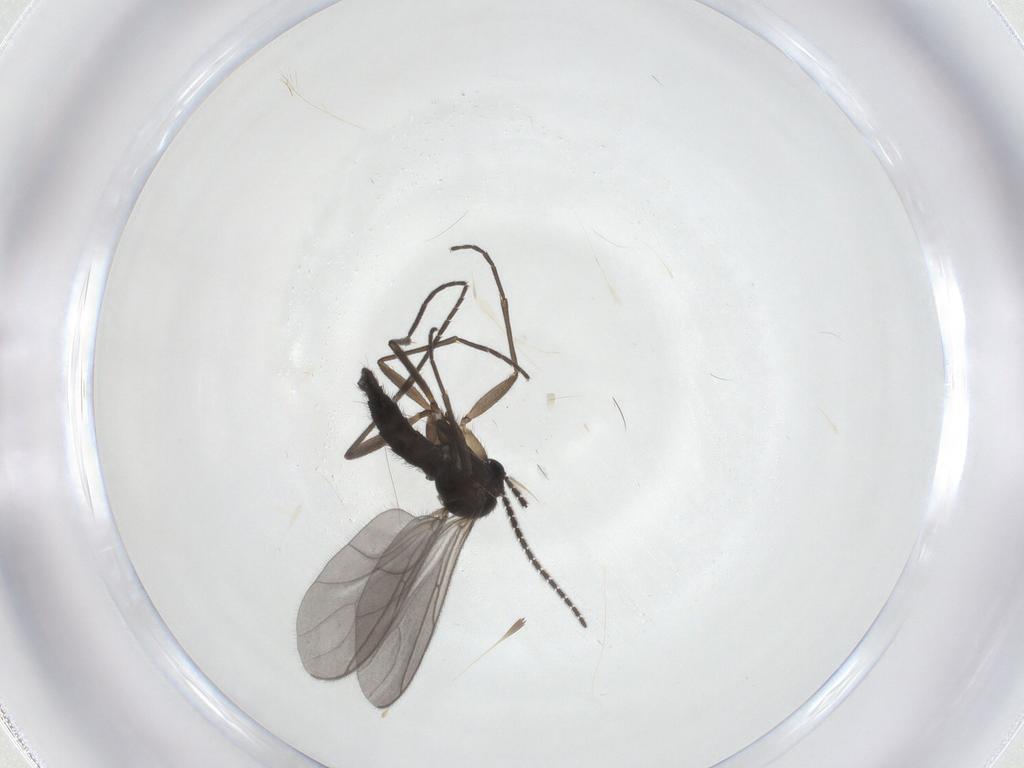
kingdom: Animalia
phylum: Arthropoda
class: Insecta
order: Diptera
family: Sciaridae
